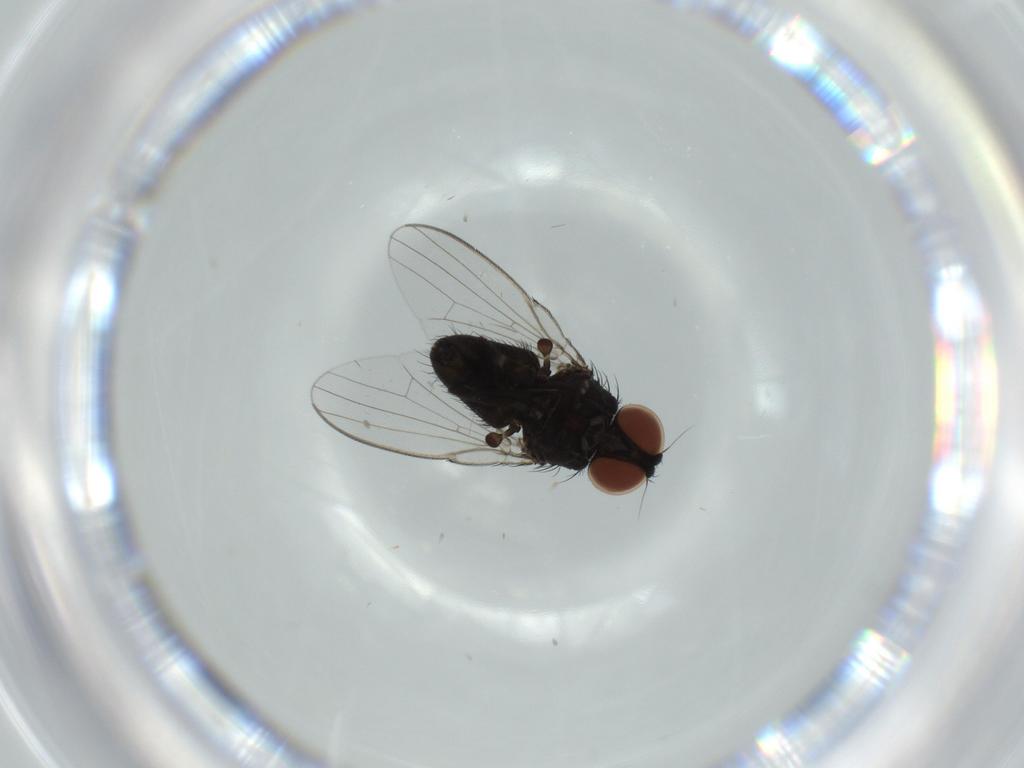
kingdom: Animalia
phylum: Arthropoda
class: Insecta
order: Diptera
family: Milichiidae
